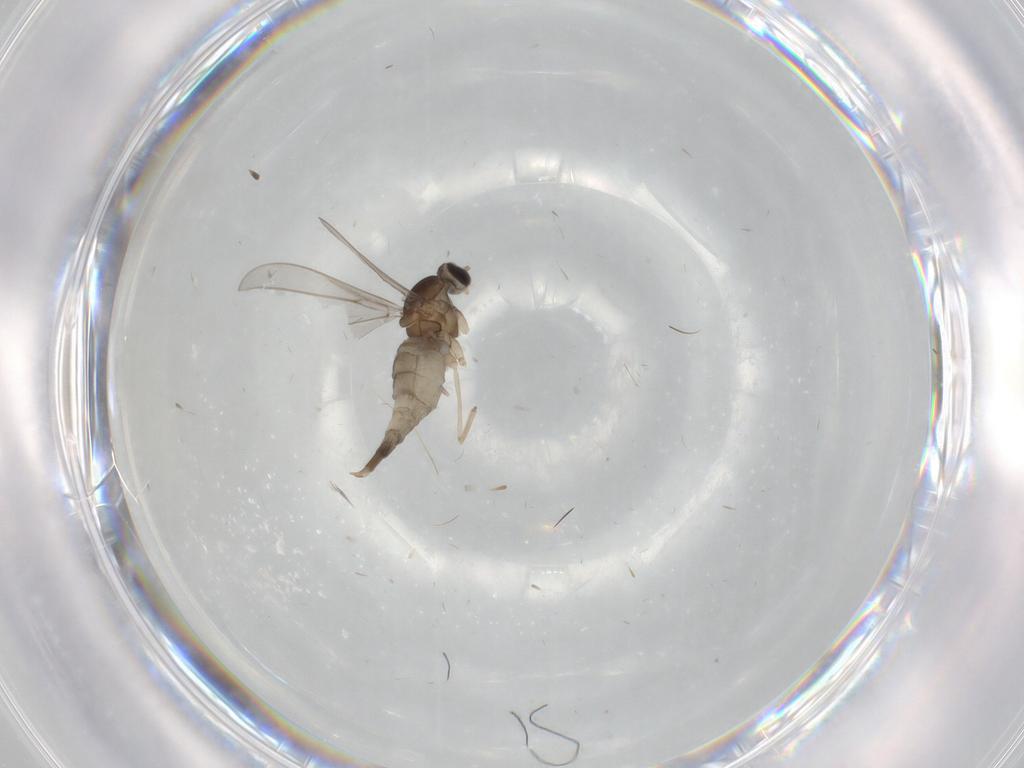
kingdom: Animalia
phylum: Arthropoda
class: Insecta
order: Diptera
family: Cecidomyiidae
